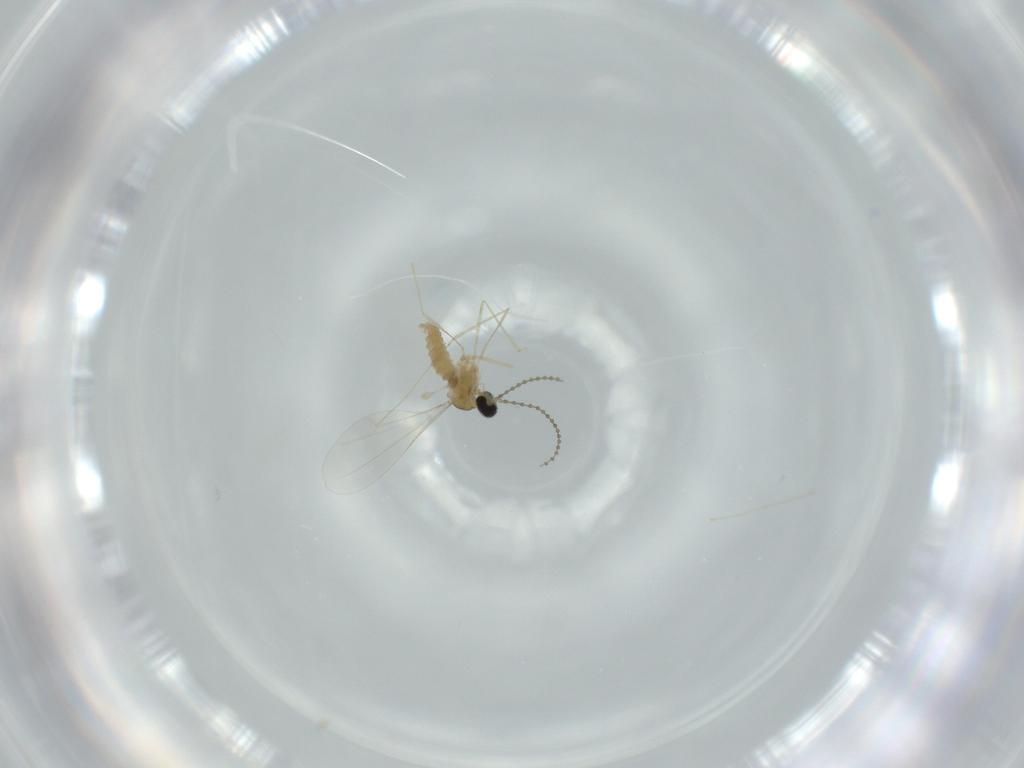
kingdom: Animalia
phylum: Arthropoda
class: Insecta
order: Diptera
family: Cecidomyiidae
